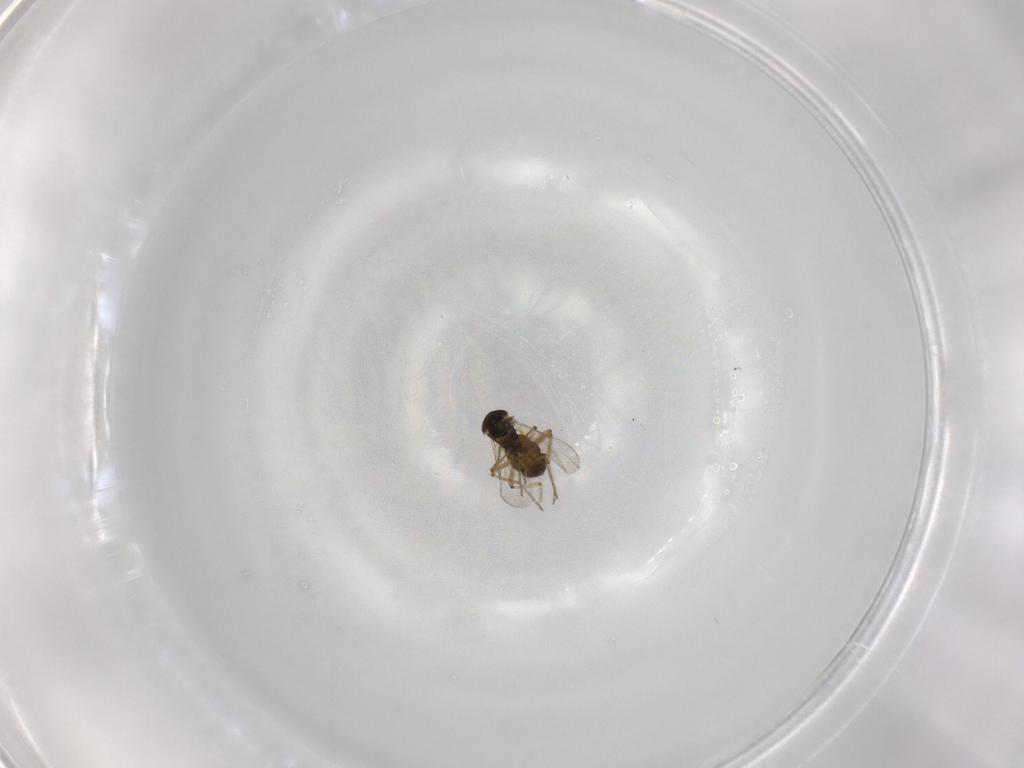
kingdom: Animalia
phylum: Arthropoda
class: Insecta
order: Diptera
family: Ceratopogonidae
